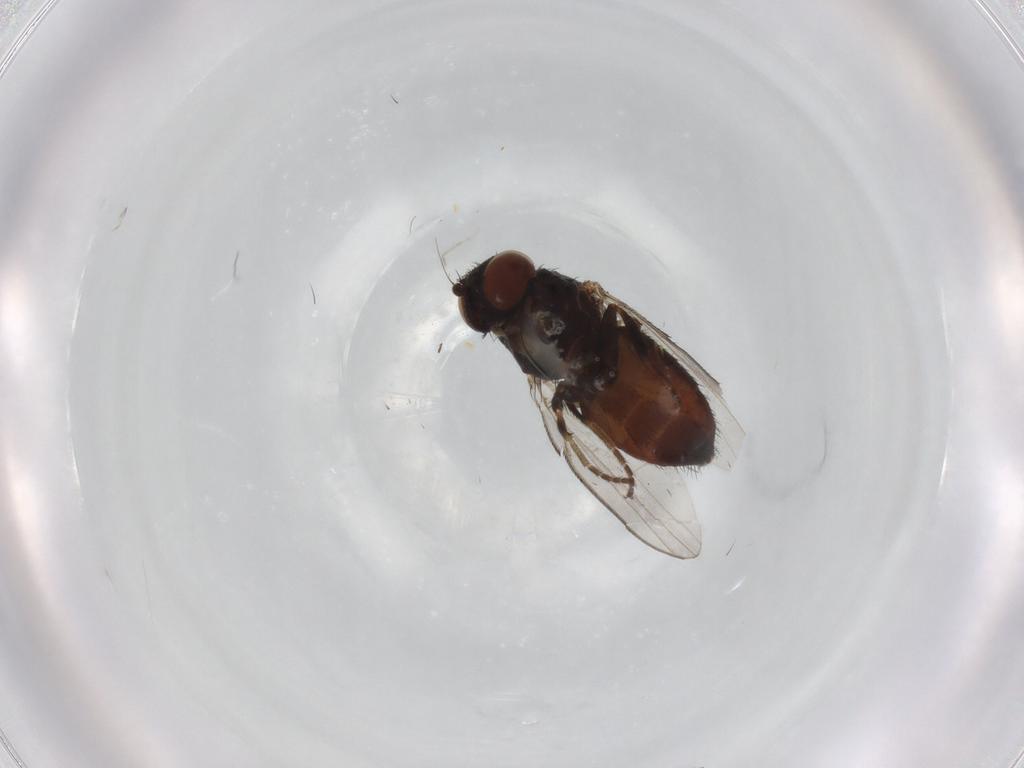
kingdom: Animalia
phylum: Arthropoda
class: Insecta
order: Diptera
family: Milichiidae
